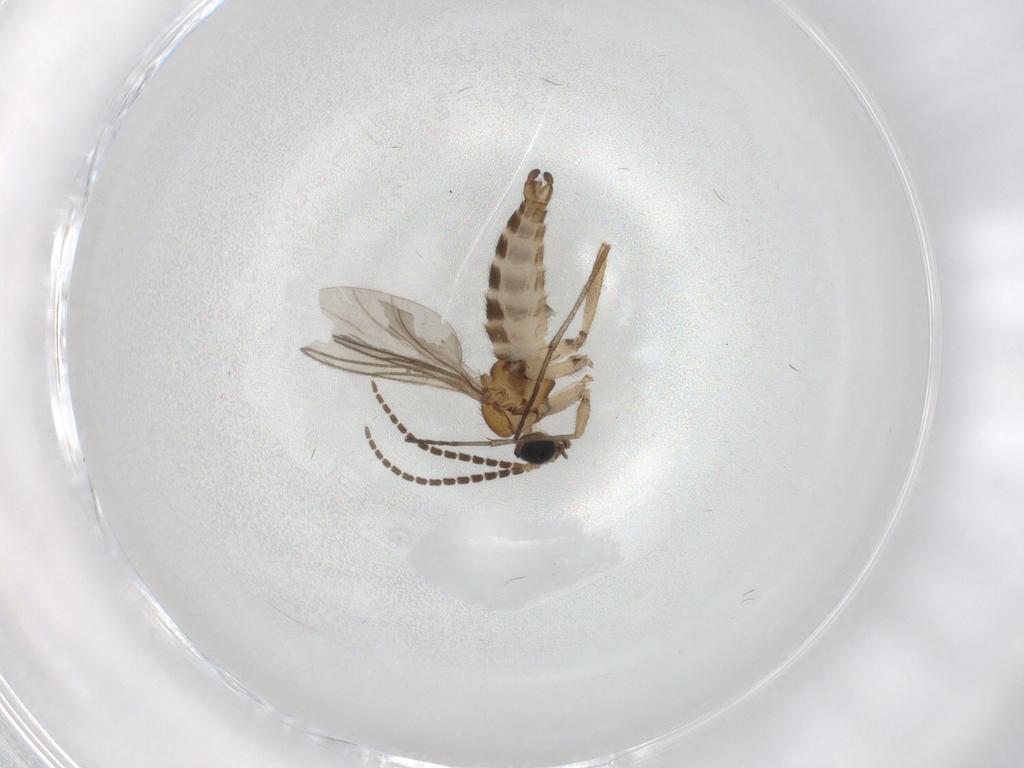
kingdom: Animalia
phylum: Arthropoda
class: Insecta
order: Diptera
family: Sciaridae
